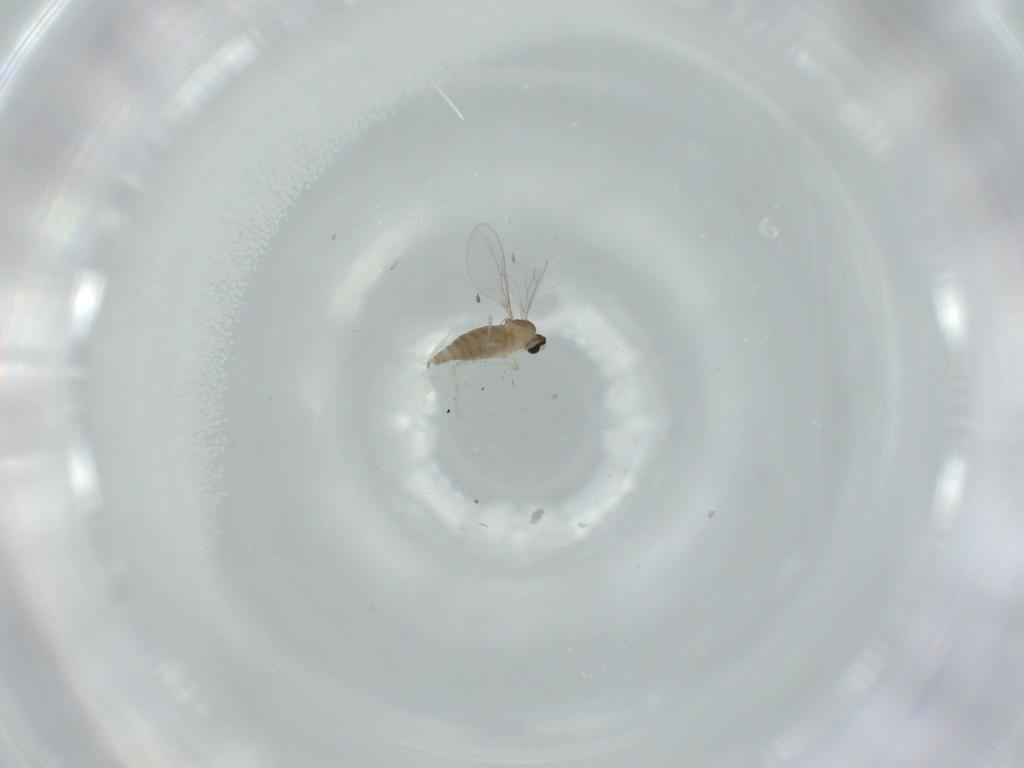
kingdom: Animalia
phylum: Arthropoda
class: Insecta
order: Diptera
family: Cecidomyiidae
